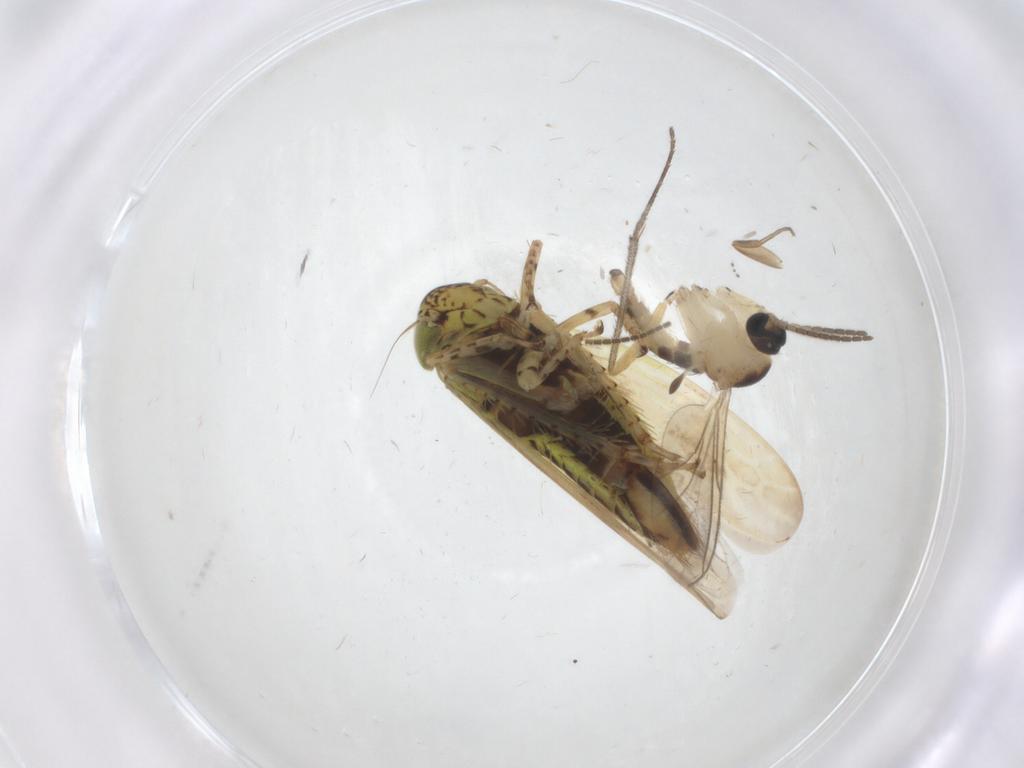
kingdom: Animalia
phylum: Arthropoda
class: Insecta
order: Diptera
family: Sciaridae
